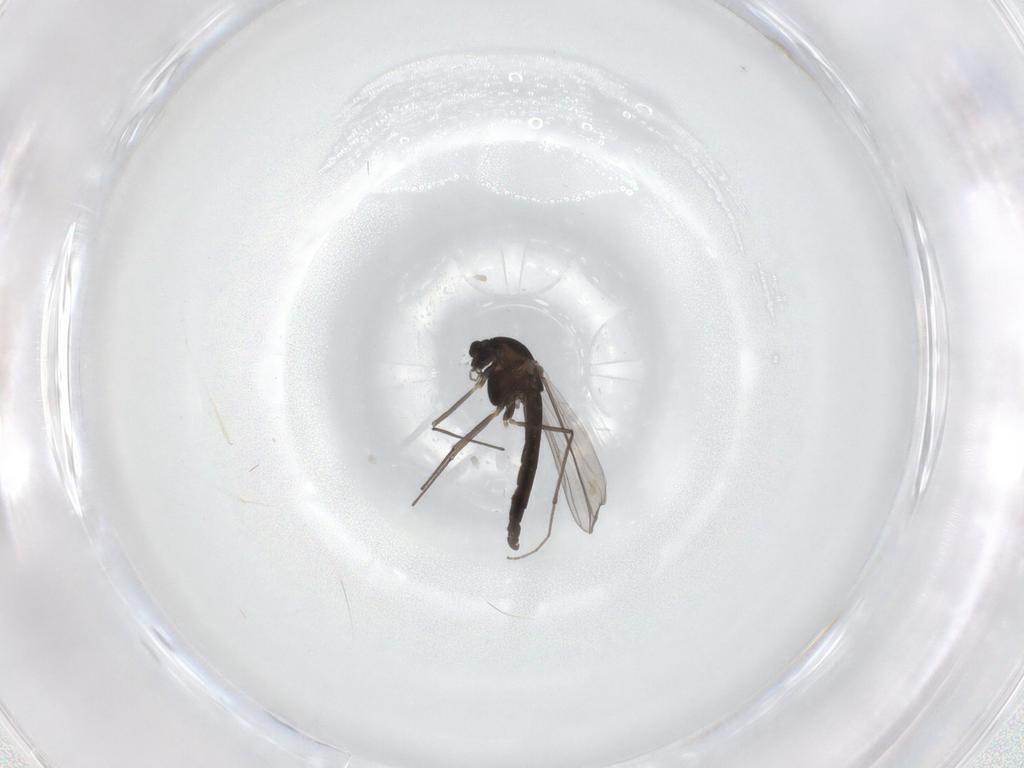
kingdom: Animalia
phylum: Arthropoda
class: Insecta
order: Diptera
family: Chironomidae
